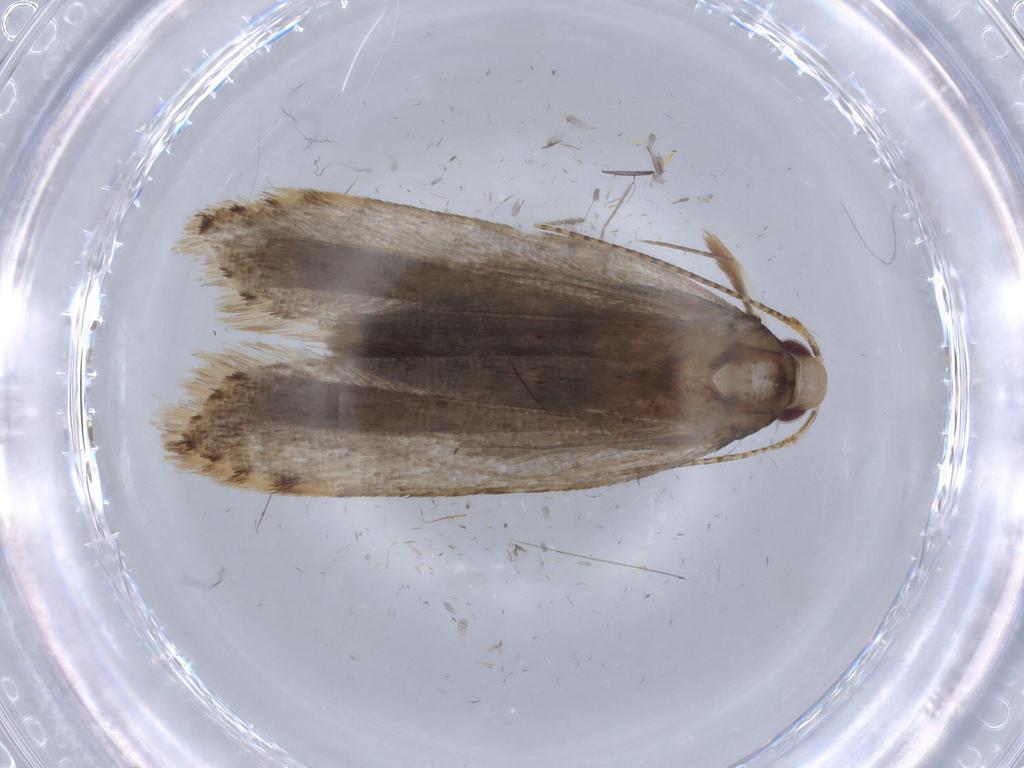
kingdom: Animalia
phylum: Arthropoda
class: Insecta
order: Lepidoptera
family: Gelechiidae
